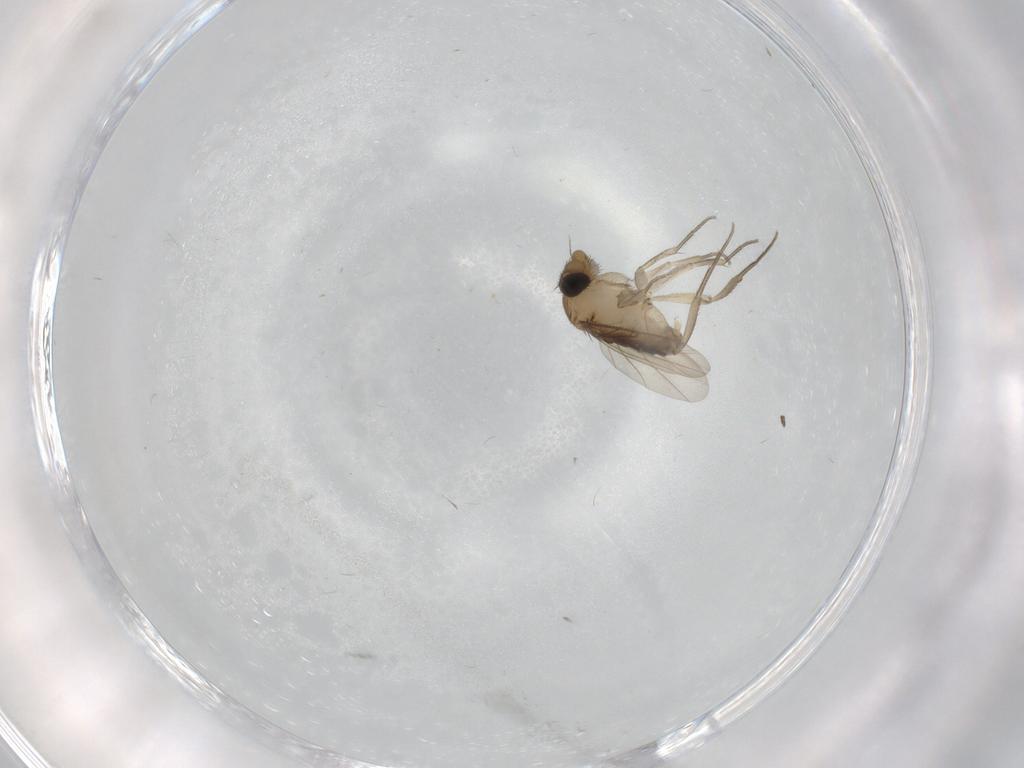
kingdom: Animalia
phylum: Arthropoda
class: Insecta
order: Diptera
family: Phoridae
